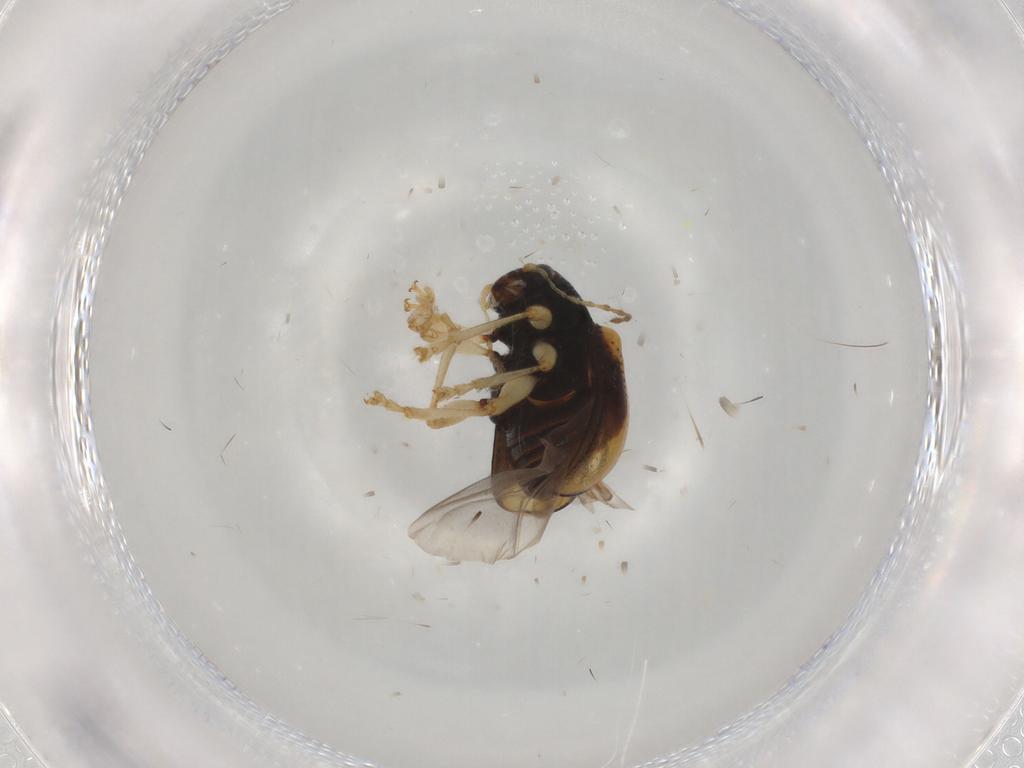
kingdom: Animalia
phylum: Arthropoda
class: Insecta
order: Coleoptera
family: Chrysomelidae
